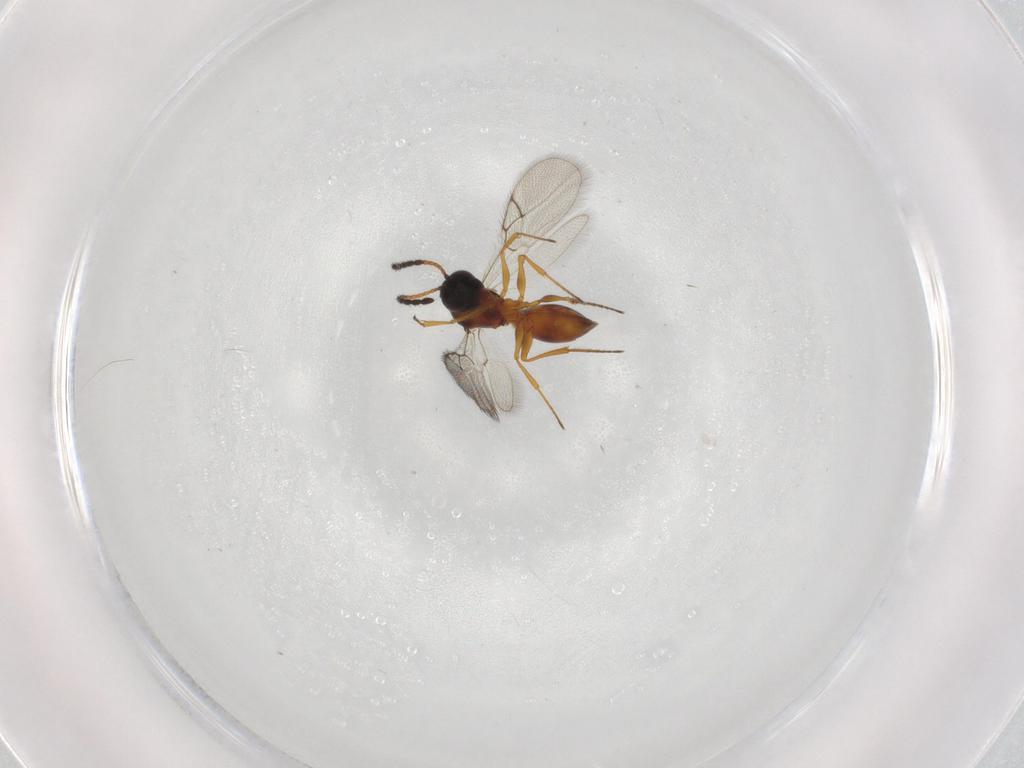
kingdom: Animalia
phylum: Arthropoda
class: Insecta
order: Hymenoptera
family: Figitidae
